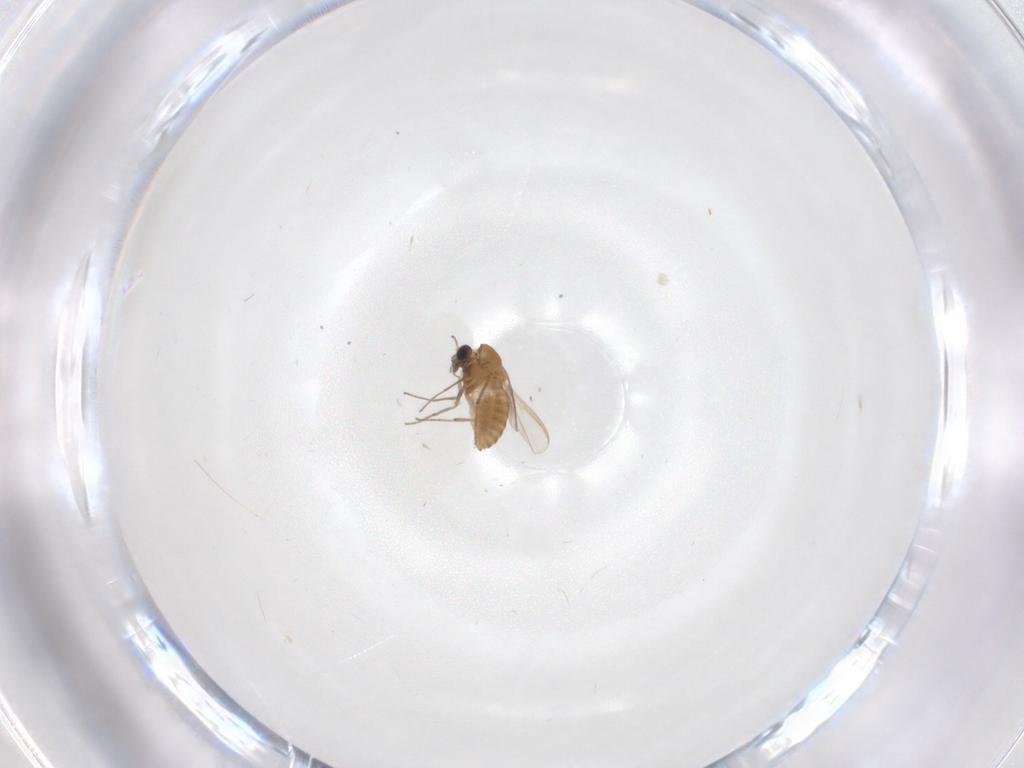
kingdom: Animalia
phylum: Arthropoda
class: Insecta
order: Diptera
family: Chironomidae
